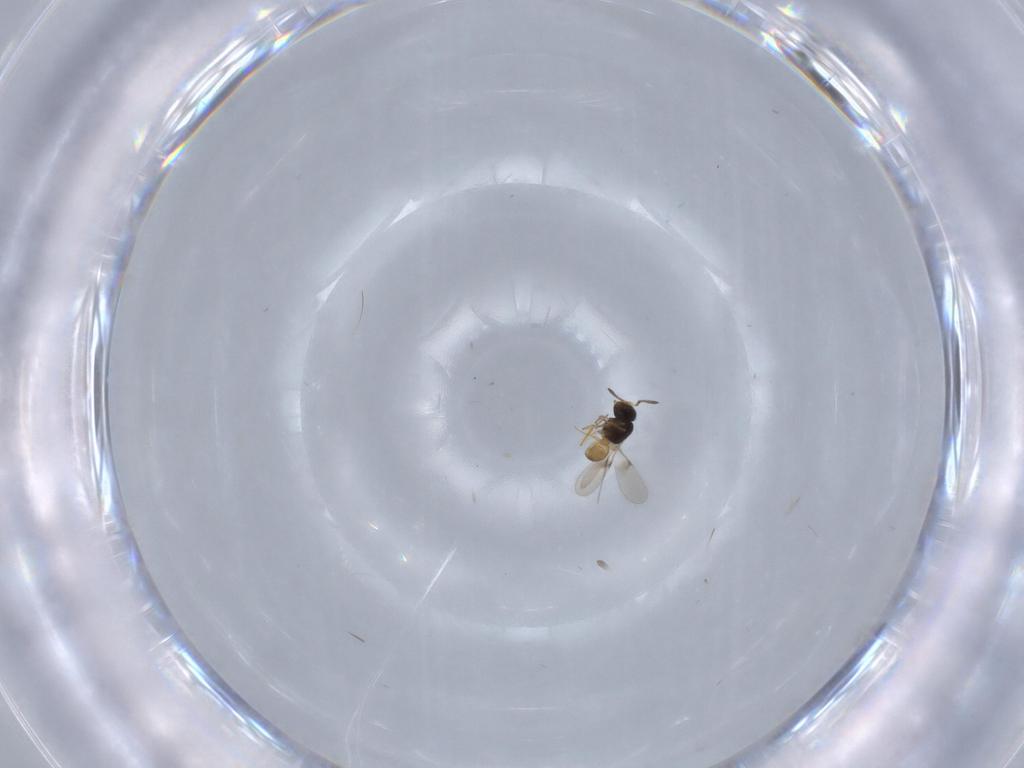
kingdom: Animalia
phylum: Arthropoda
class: Insecta
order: Hymenoptera
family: Scelionidae
